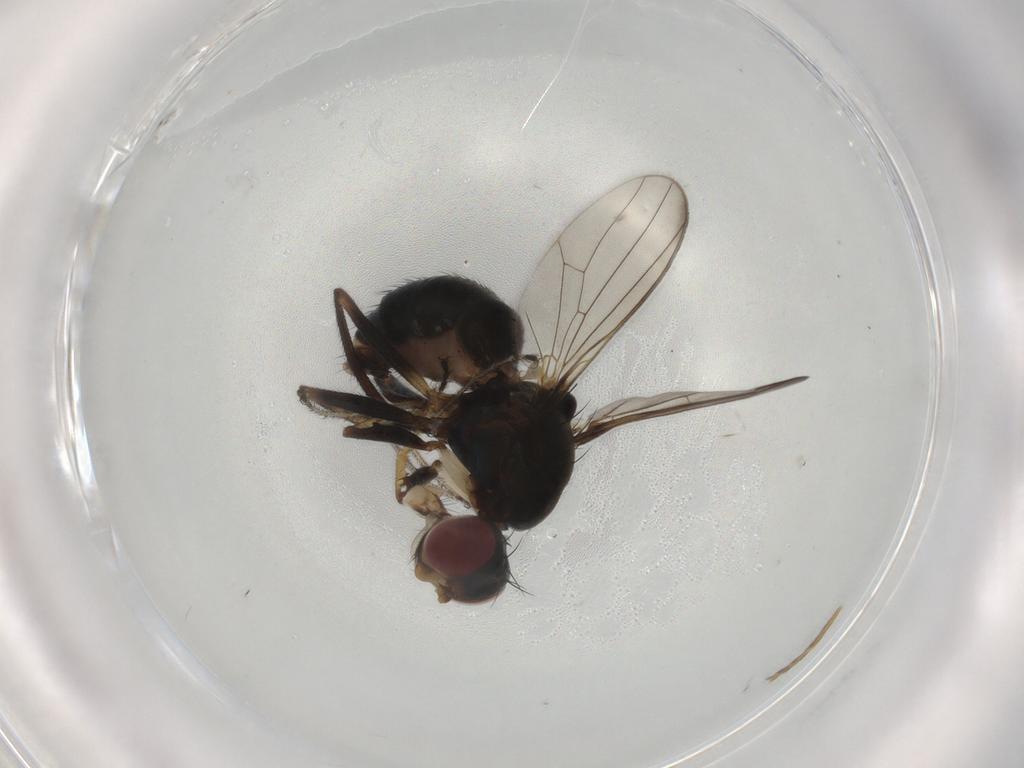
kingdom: Animalia
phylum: Arthropoda
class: Insecta
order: Diptera
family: Sepsidae
